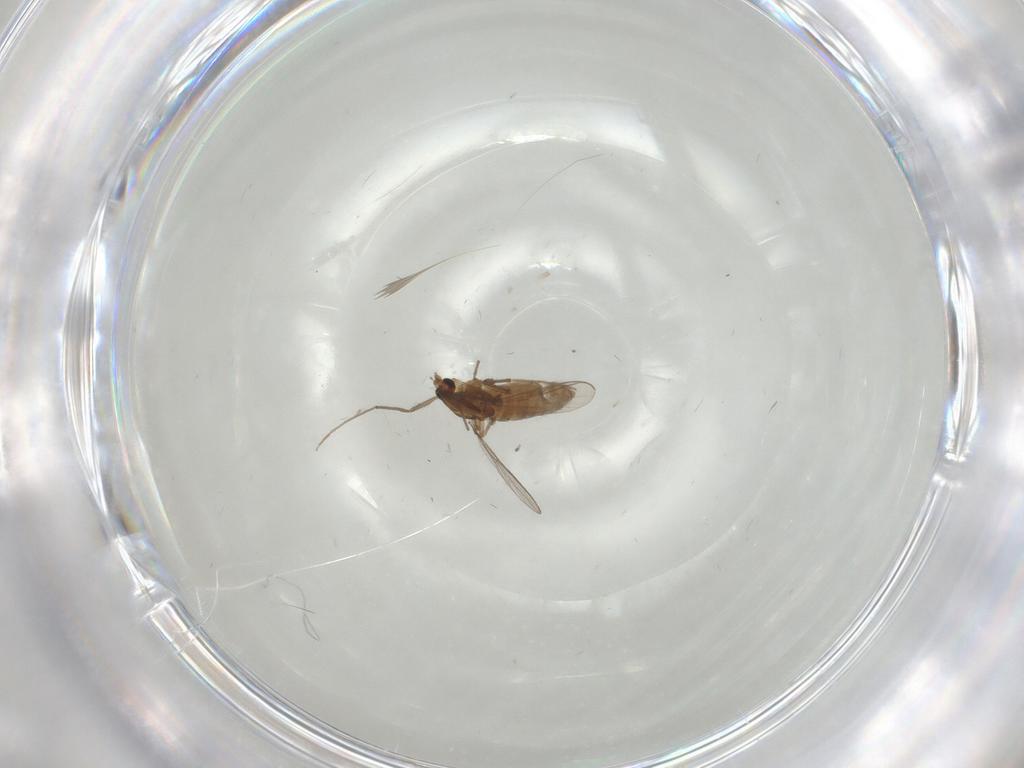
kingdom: Animalia
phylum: Arthropoda
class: Insecta
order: Diptera
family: Chironomidae
